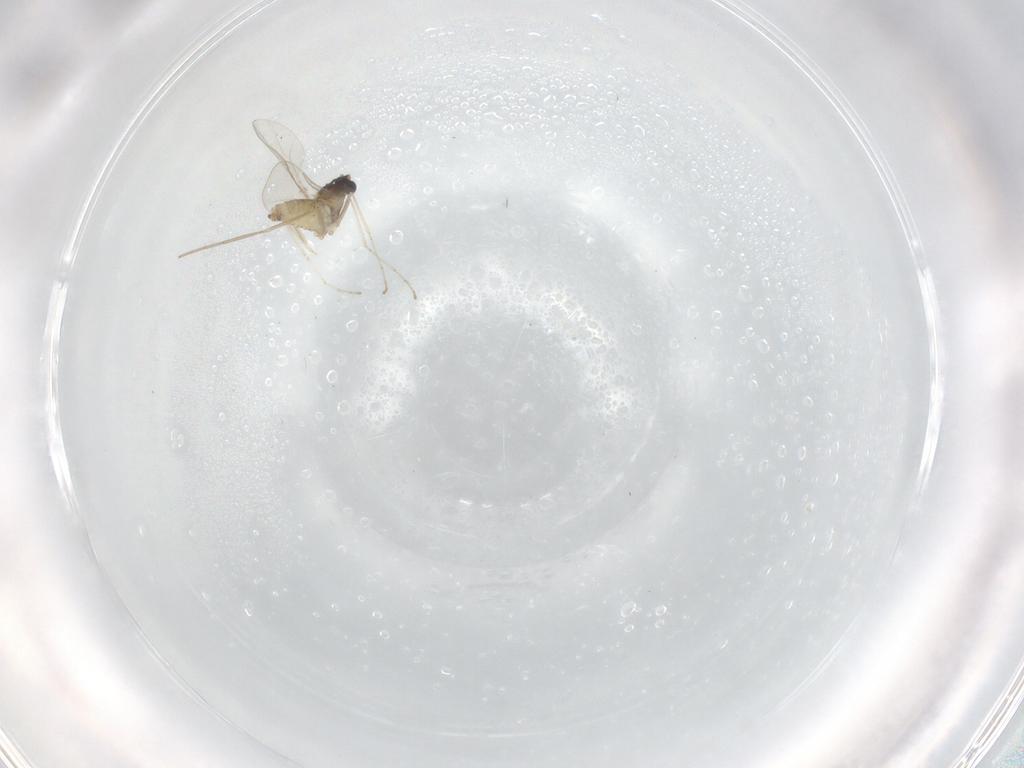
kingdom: Animalia
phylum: Arthropoda
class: Insecta
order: Diptera
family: Cecidomyiidae
